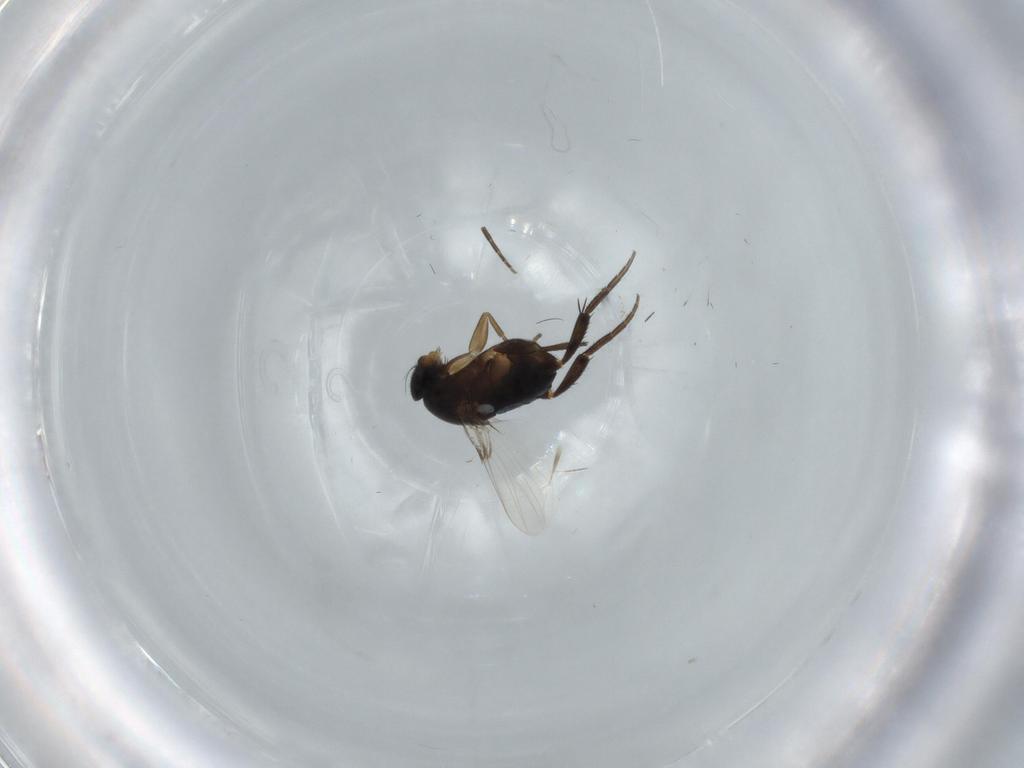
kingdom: Animalia
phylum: Arthropoda
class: Insecta
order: Diptera
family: Phoridae
